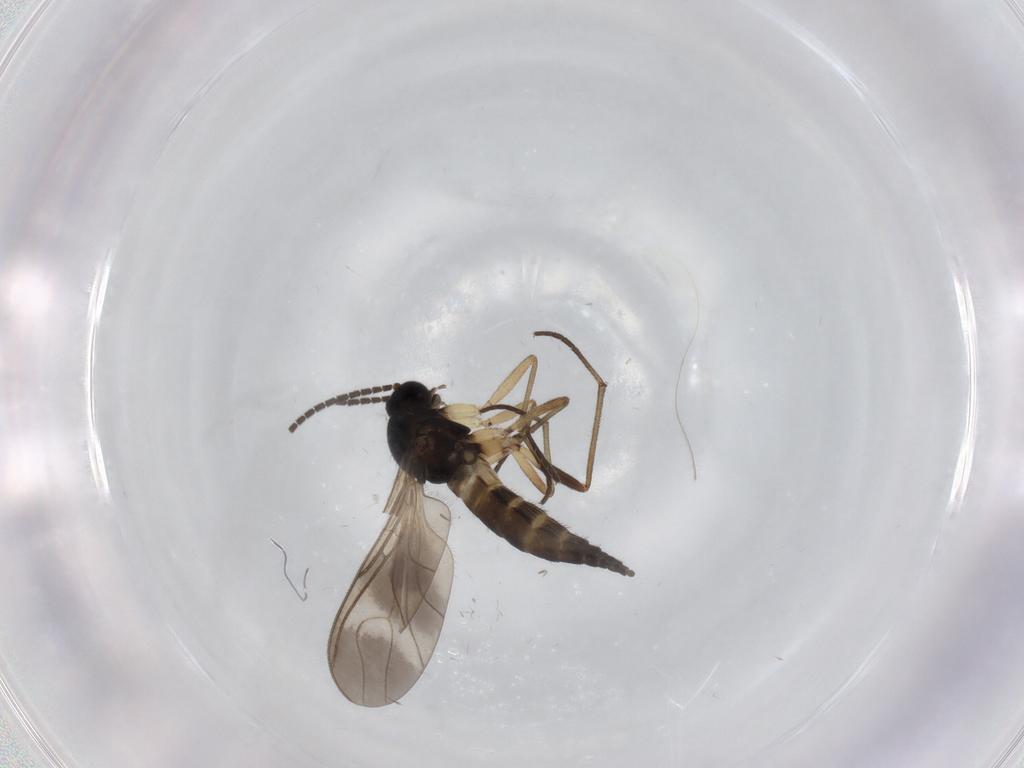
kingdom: Animalia
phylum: Arthropoda
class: Insecta
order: Diptera
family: Sciaridae
